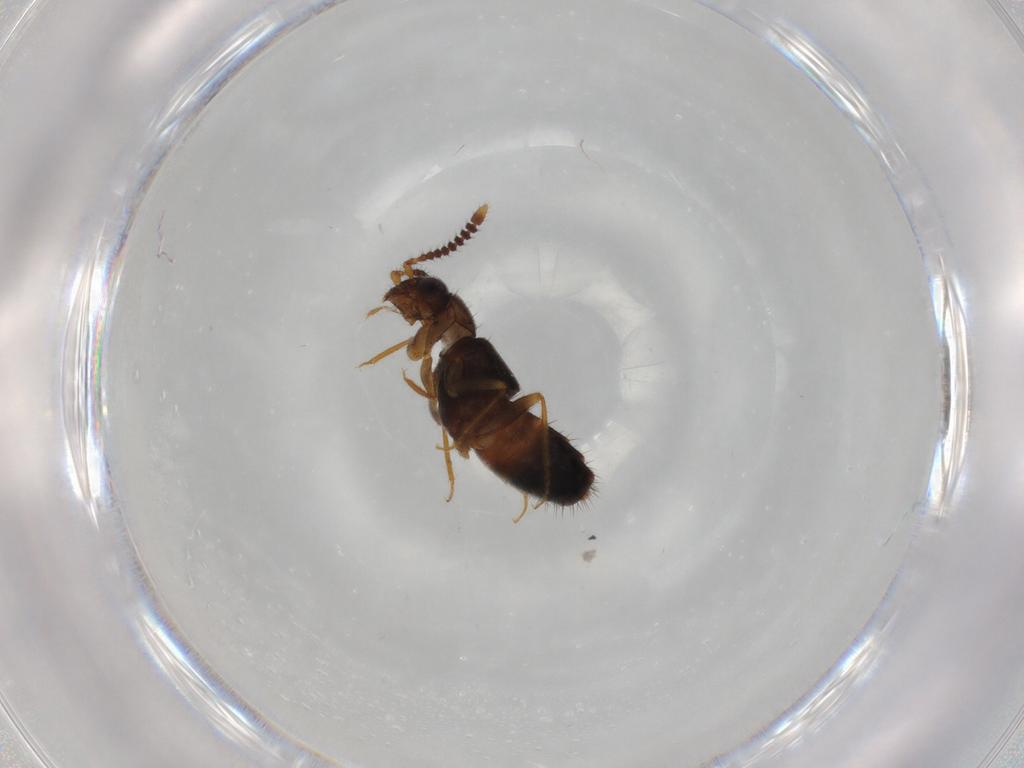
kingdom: Animalia
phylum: Arthropoda
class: Insecta
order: Coleoptera
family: Staphylinidae
